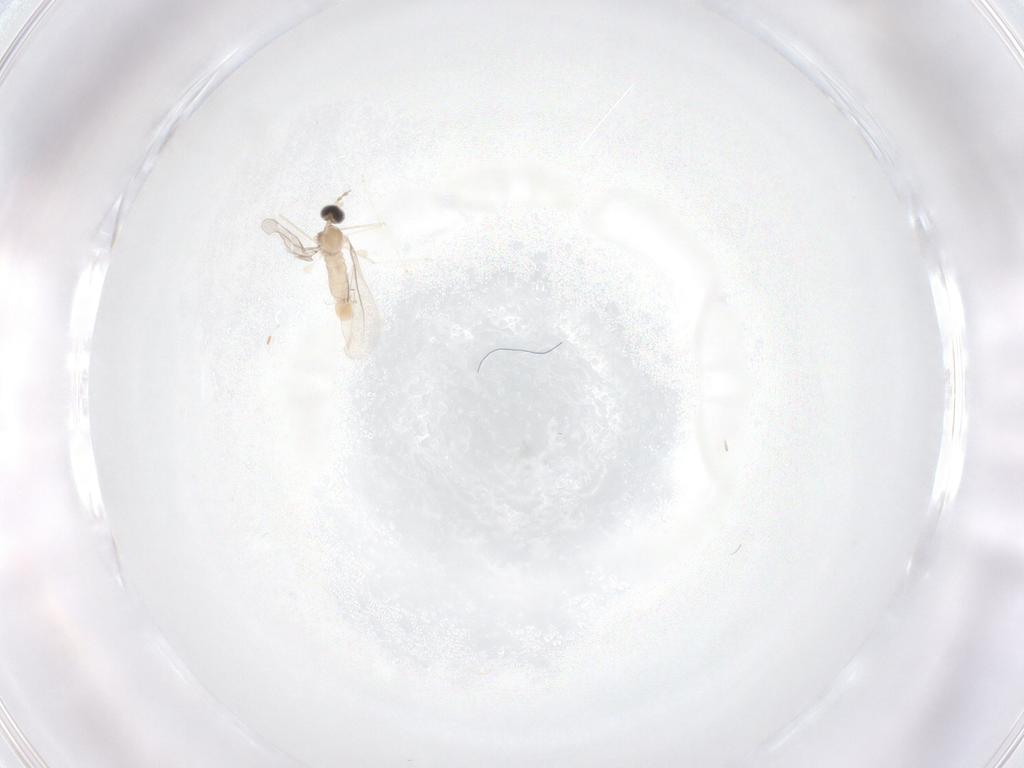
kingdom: Animalia
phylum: Arthropoda
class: Insecta
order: Diptera
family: Cecidomyiidae
